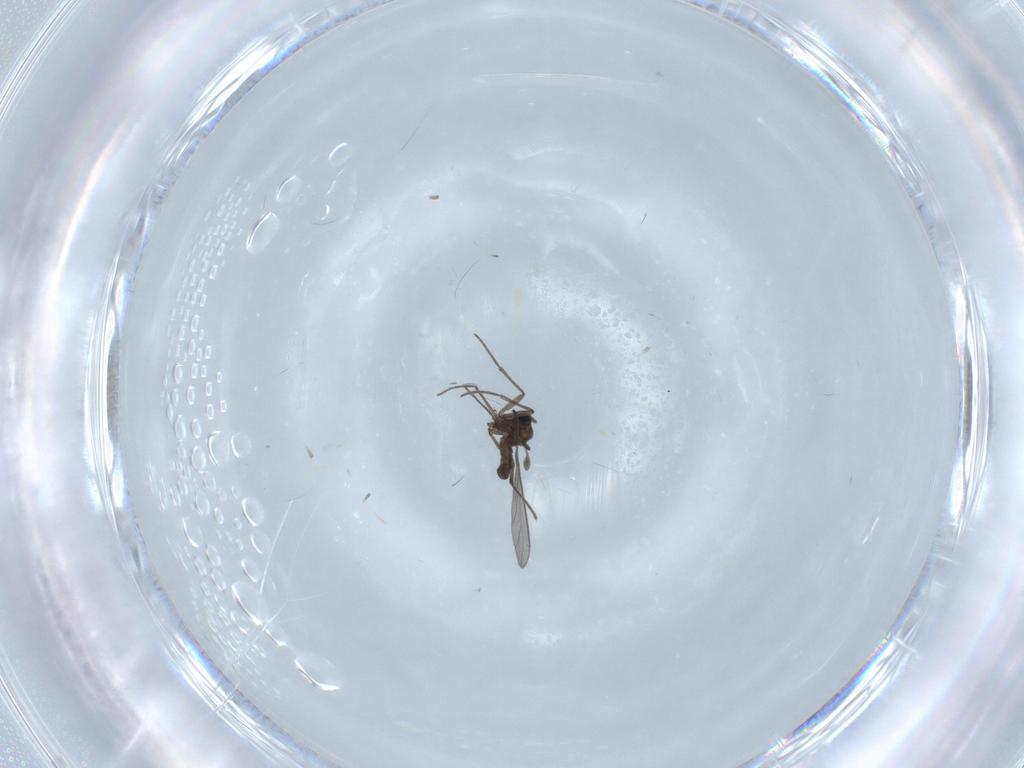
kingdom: Animalia
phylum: Arthropoda
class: Insecta
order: Diptera
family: Sciaridae
